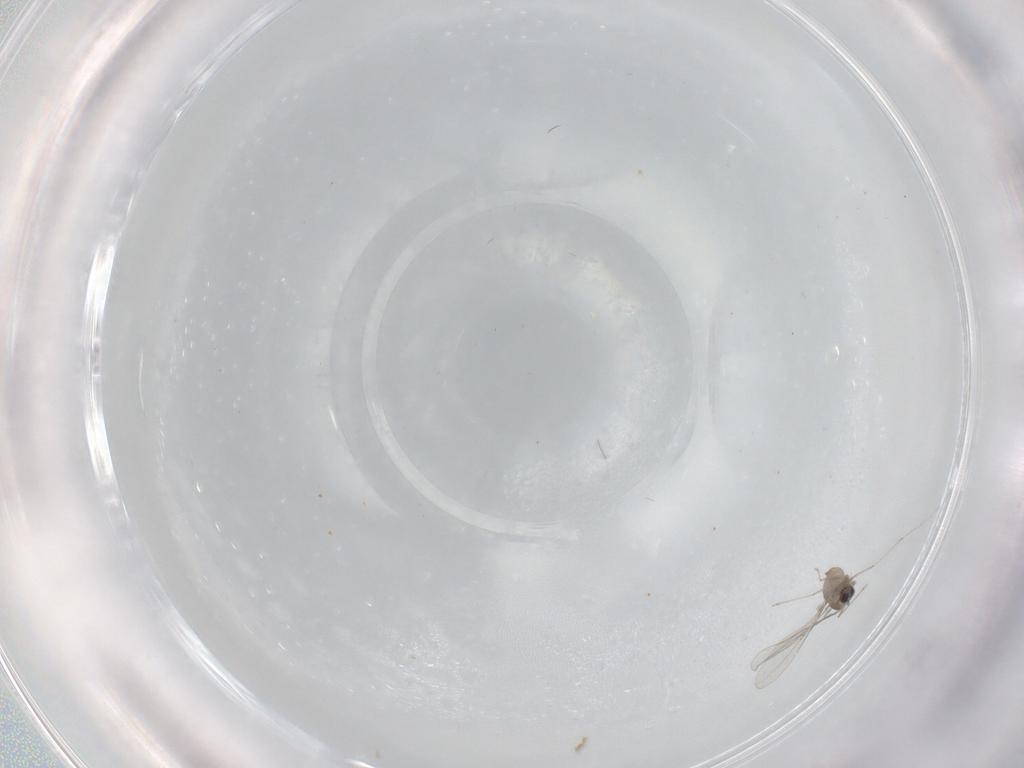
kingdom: Animalia
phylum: Arthropoda
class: Insecta
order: Diptera
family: Cecidomyiidae
